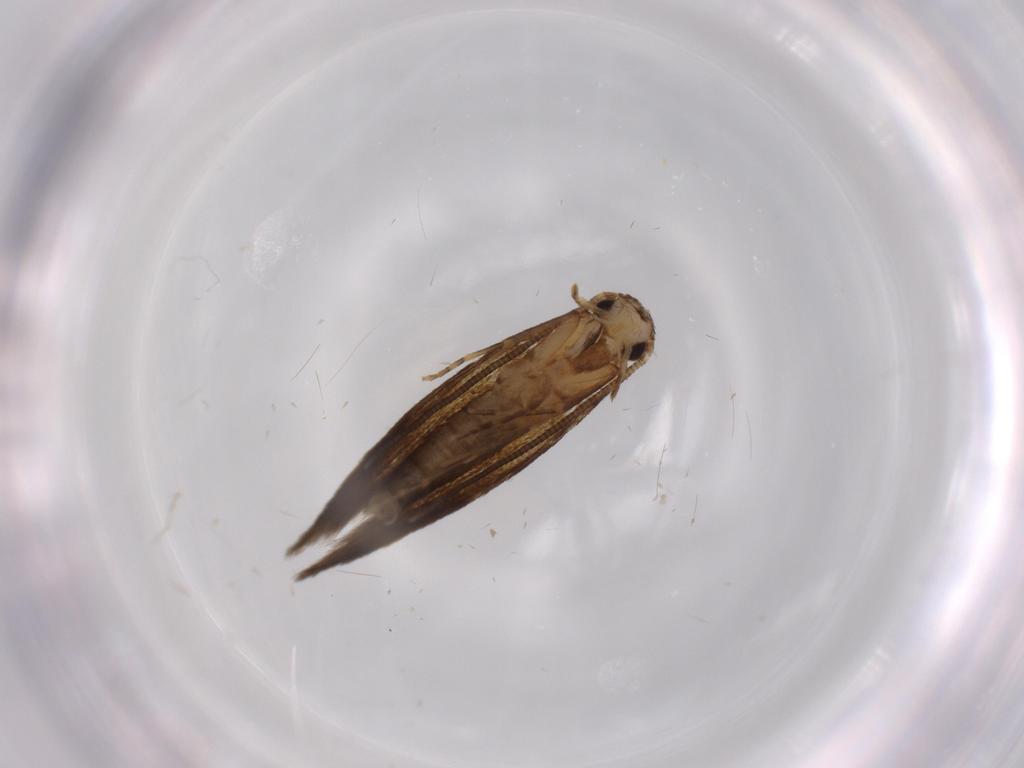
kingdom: Animalia
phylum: Arthropoda
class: Insecta
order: Lepidoptera
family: Tineidae
